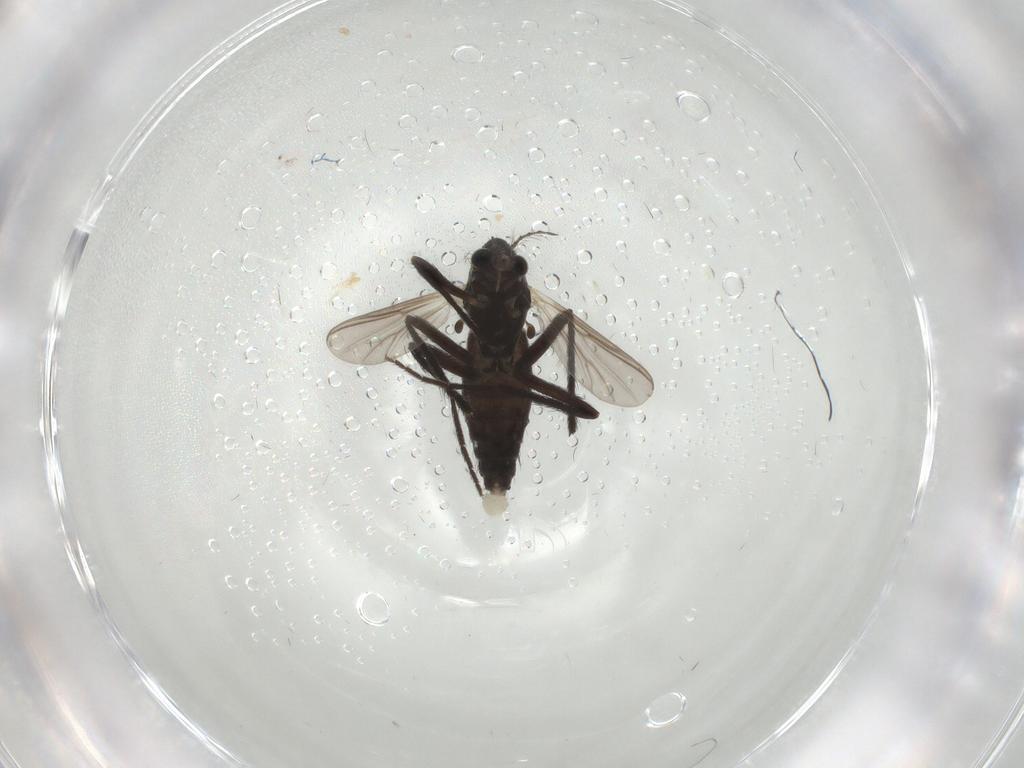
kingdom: Animalia
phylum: Arthropoda
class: Insecta
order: Diptera
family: Chironomidae
